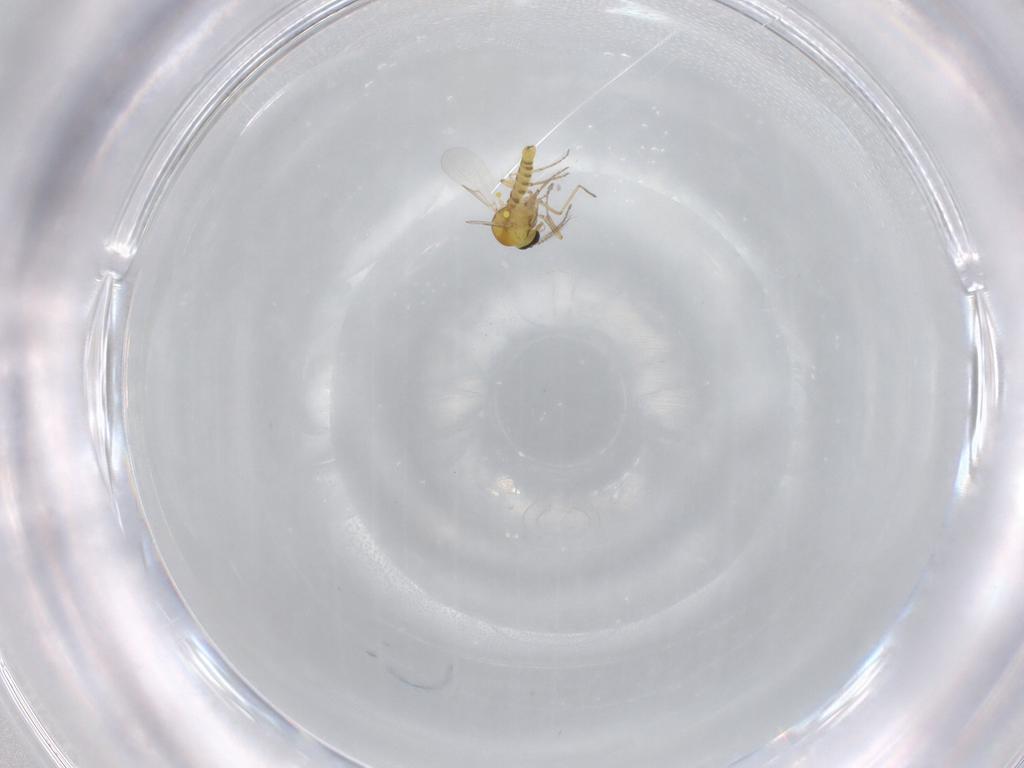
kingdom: Animalia
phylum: Arthropoda
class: Insecta
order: Diptera
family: Ceratopogonidae
